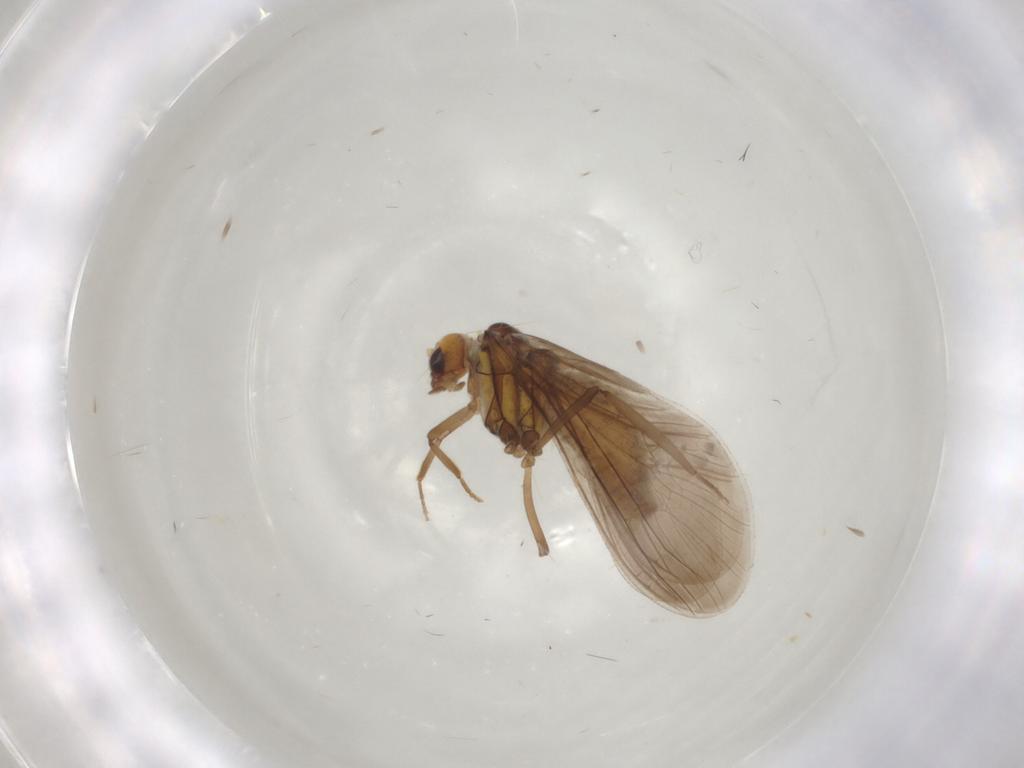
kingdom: Animalia
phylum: Arthropoda
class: Insecta
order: Neuroptera
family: Coniopterygidae
